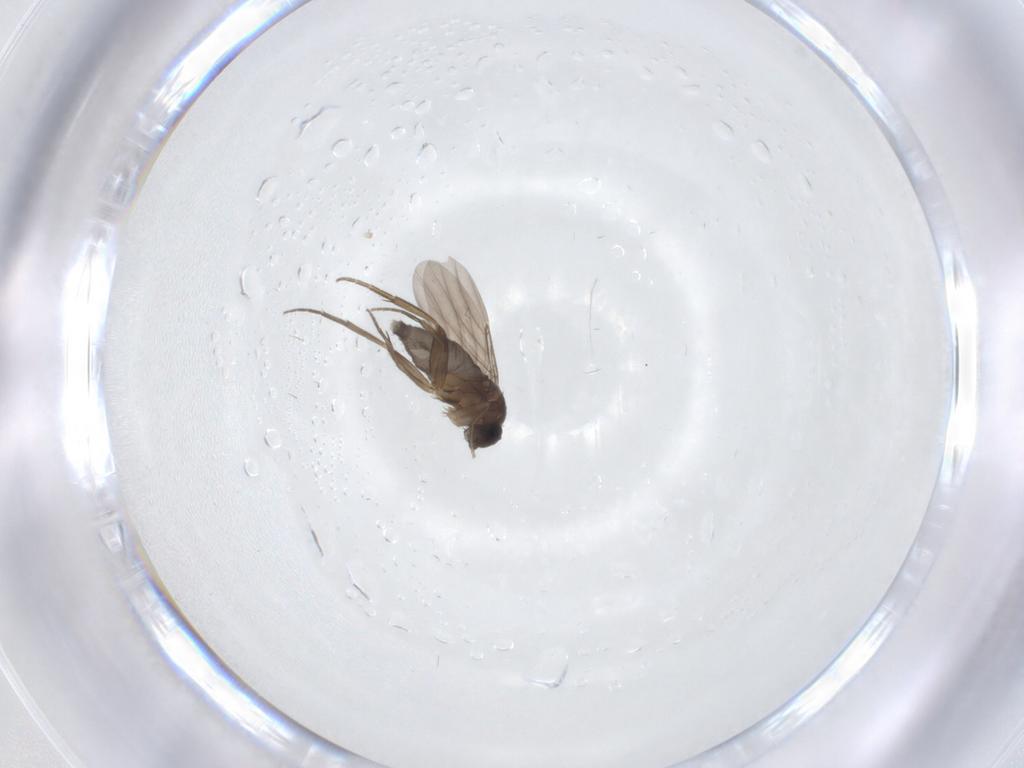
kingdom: Animalia
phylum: Arthropoda
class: Insecta
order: Diptera
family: Phoridae
